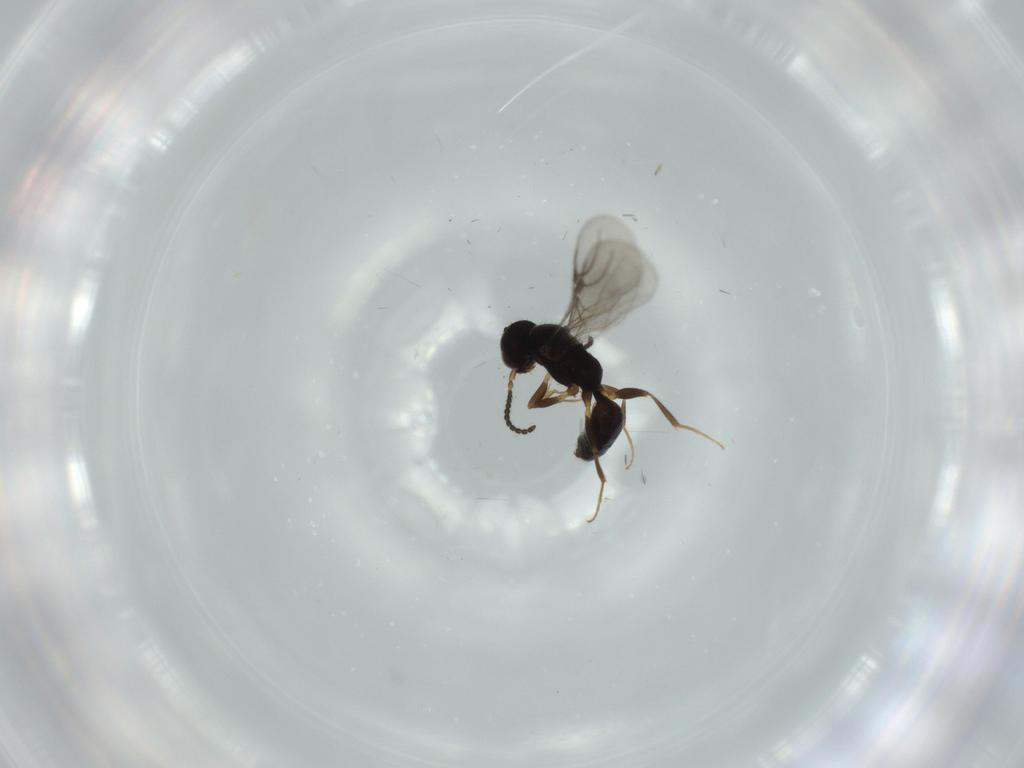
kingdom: Animalia
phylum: Arthropoda
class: Insecta
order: Hymenoptera
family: Bethylidae
